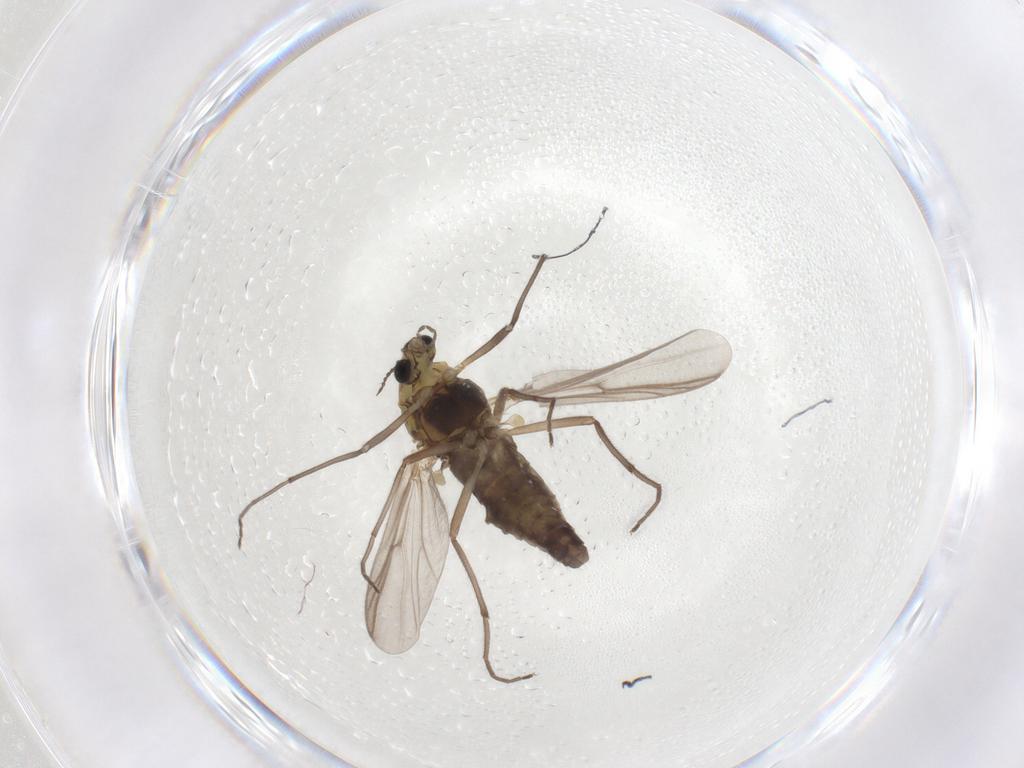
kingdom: Animalia
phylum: Arthropoda
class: Insecta
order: Diptera
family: Chironomidae
